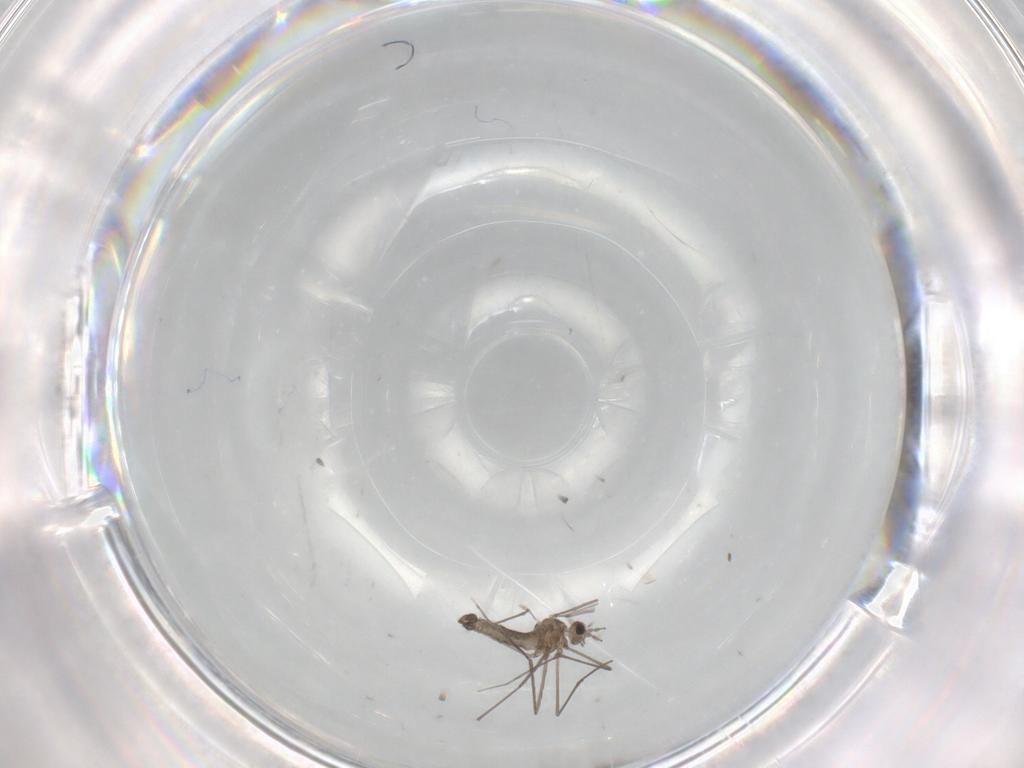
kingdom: Animalia
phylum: Arthropoda
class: Insecta
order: Diptera
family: Cecidomyiidae
